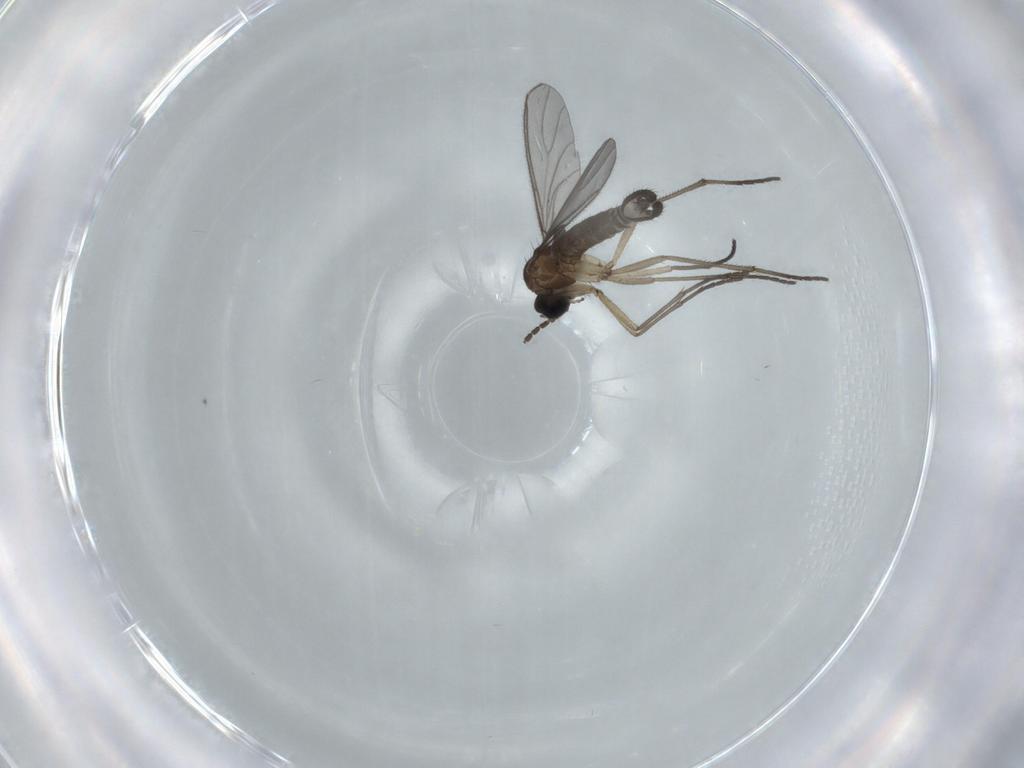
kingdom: Animalia
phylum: Arthropoda
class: Insecta
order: Diptera
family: Sciaridae
